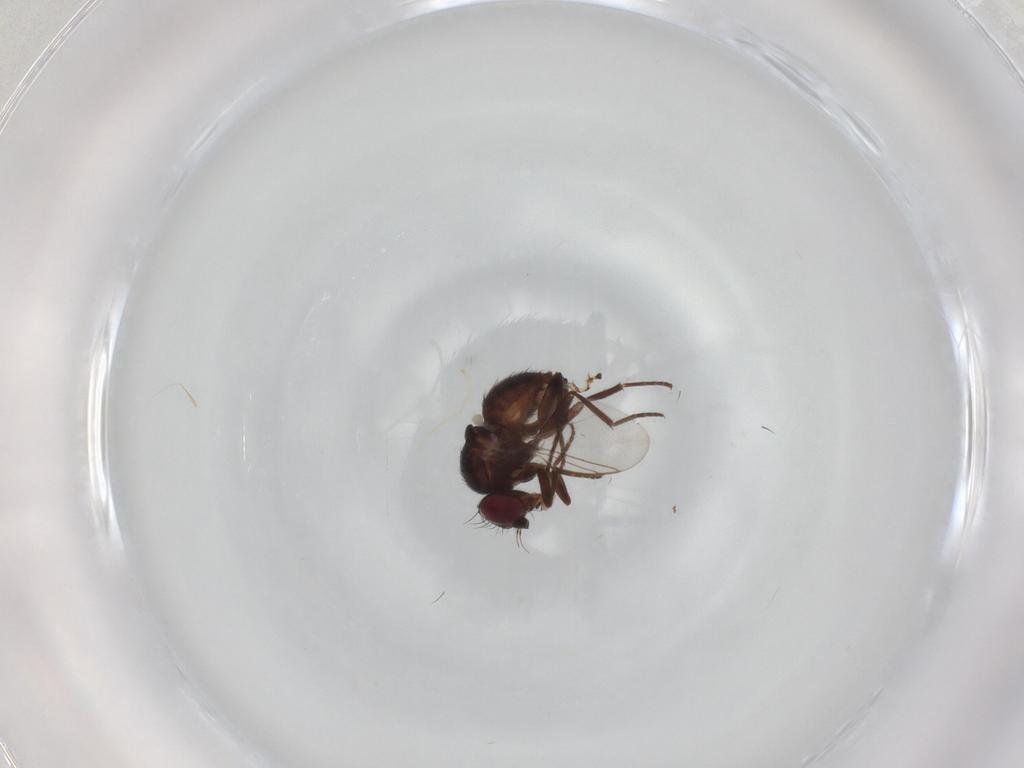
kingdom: Animalia
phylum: Arthropoda
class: Insecta
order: Diptera
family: Cecidomyiidae
